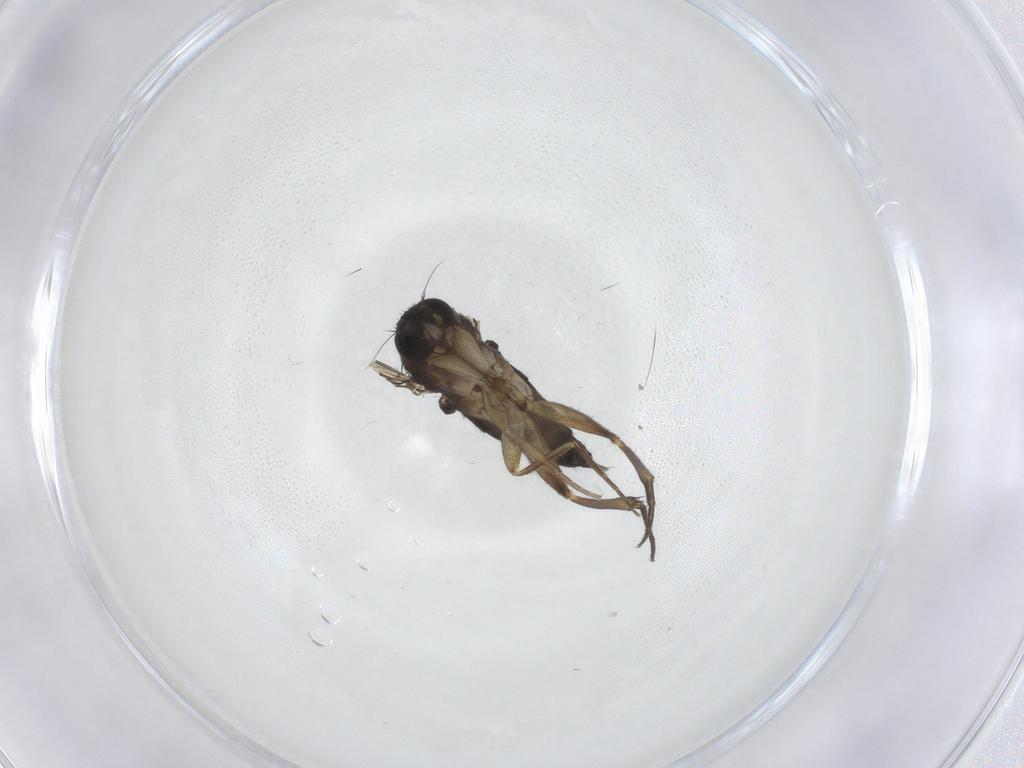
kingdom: Animalia
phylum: Arthropoda
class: Insecta
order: Diptera
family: Phoridae
